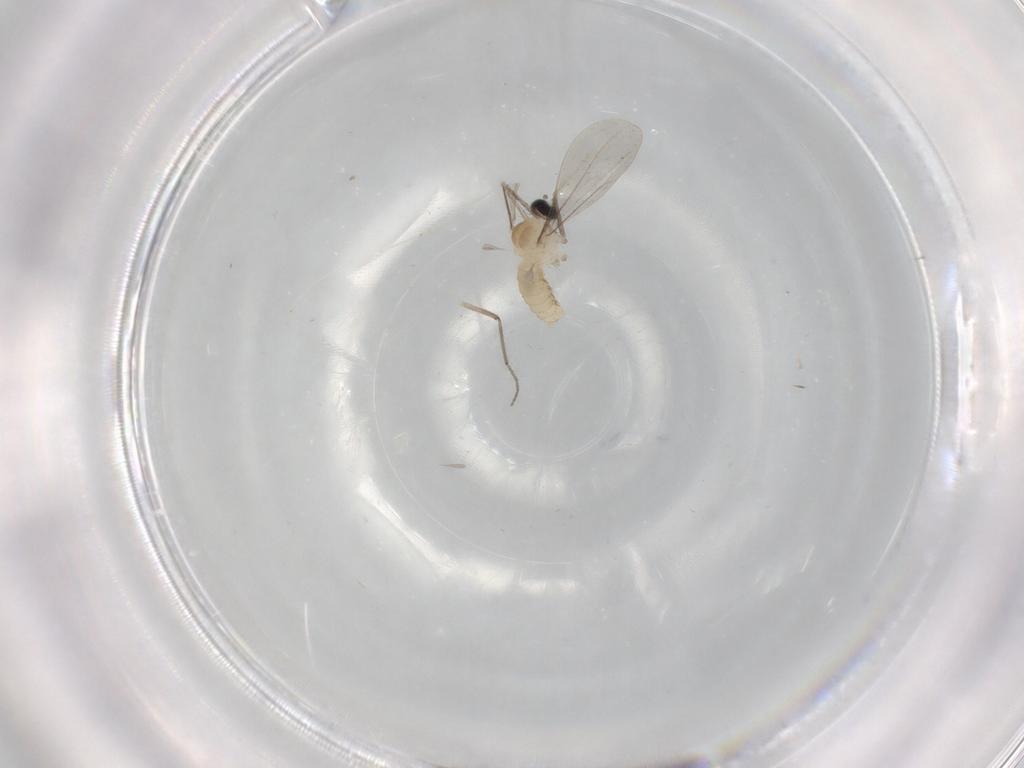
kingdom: Animalia
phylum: Arthropoda
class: Insecta
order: Diptera
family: Cecidomyiidae
